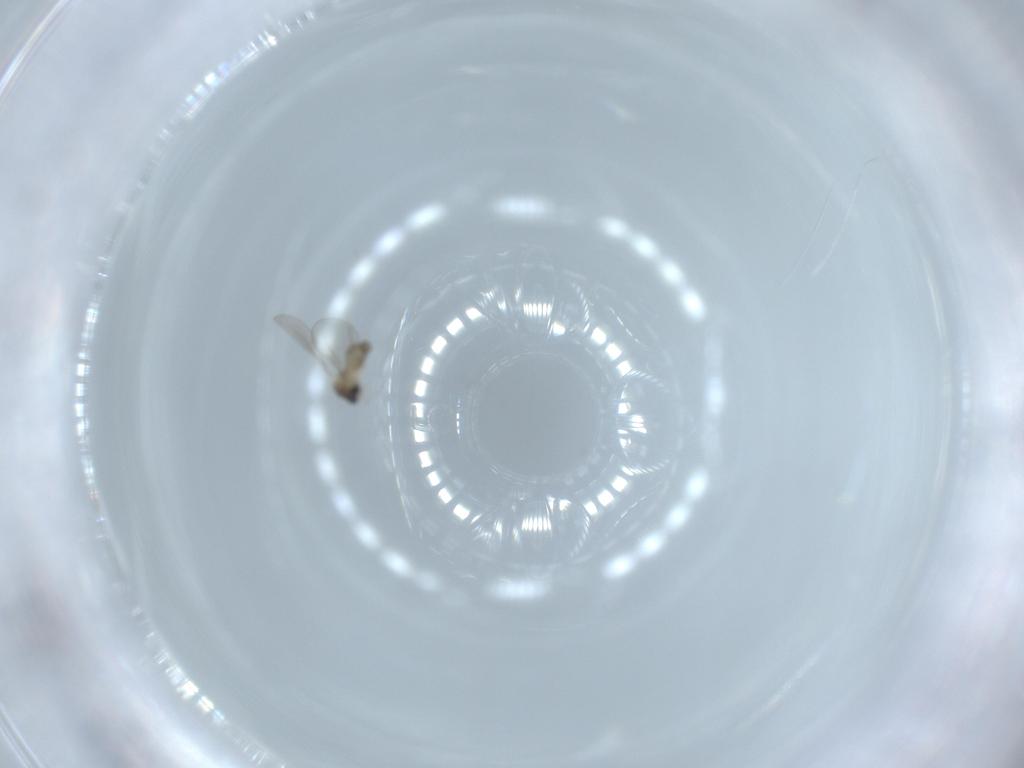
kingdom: Animalia
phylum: Arthropoda
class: Insecta
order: Diptera
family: Cecidomyiidae
